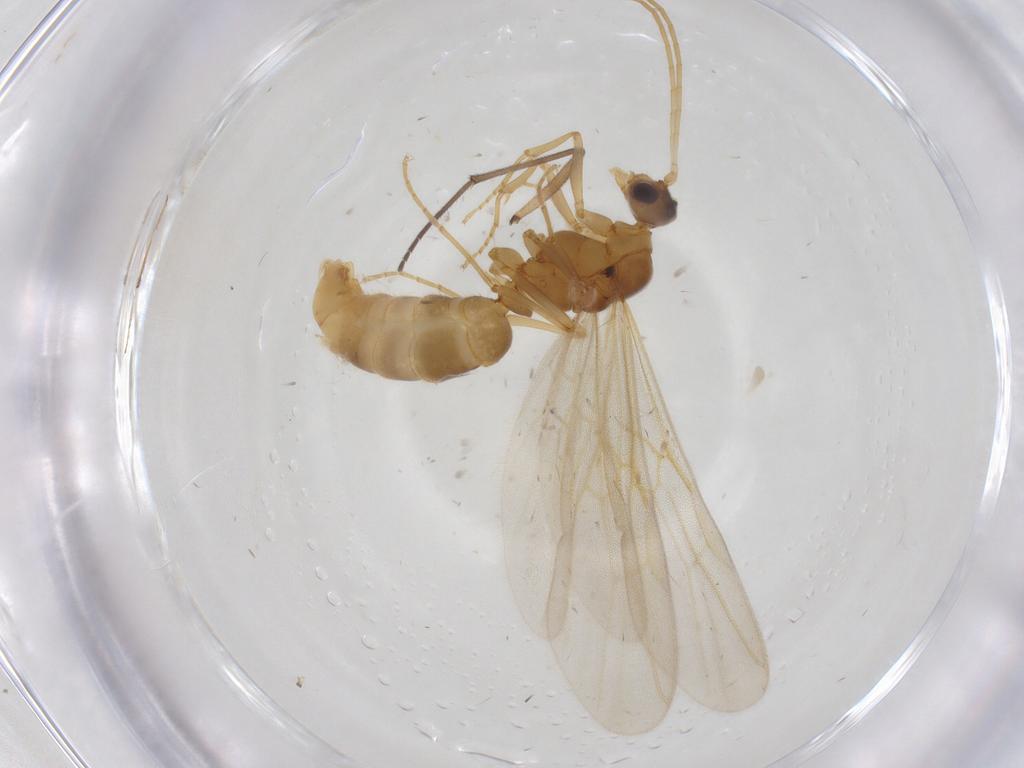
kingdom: Animalia
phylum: Arthropoda
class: Insecta
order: Hymenoptera
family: Formicidae
